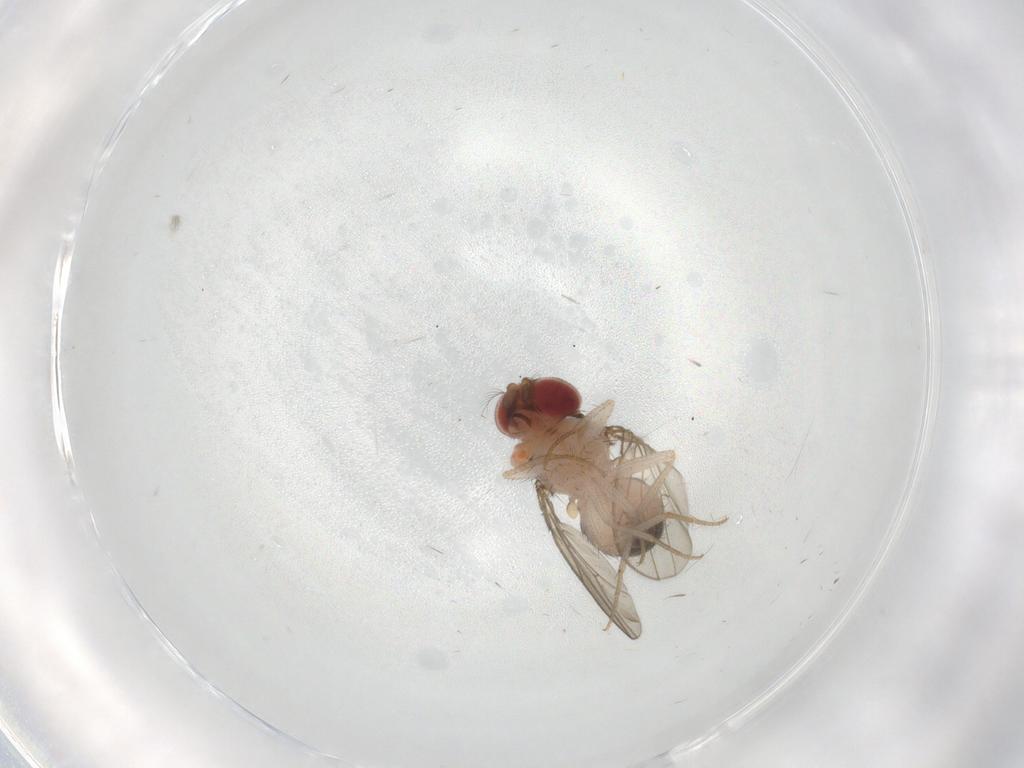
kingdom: Animalia
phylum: Arthropoda
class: Insecta
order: Diptera
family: Drosophilidae
